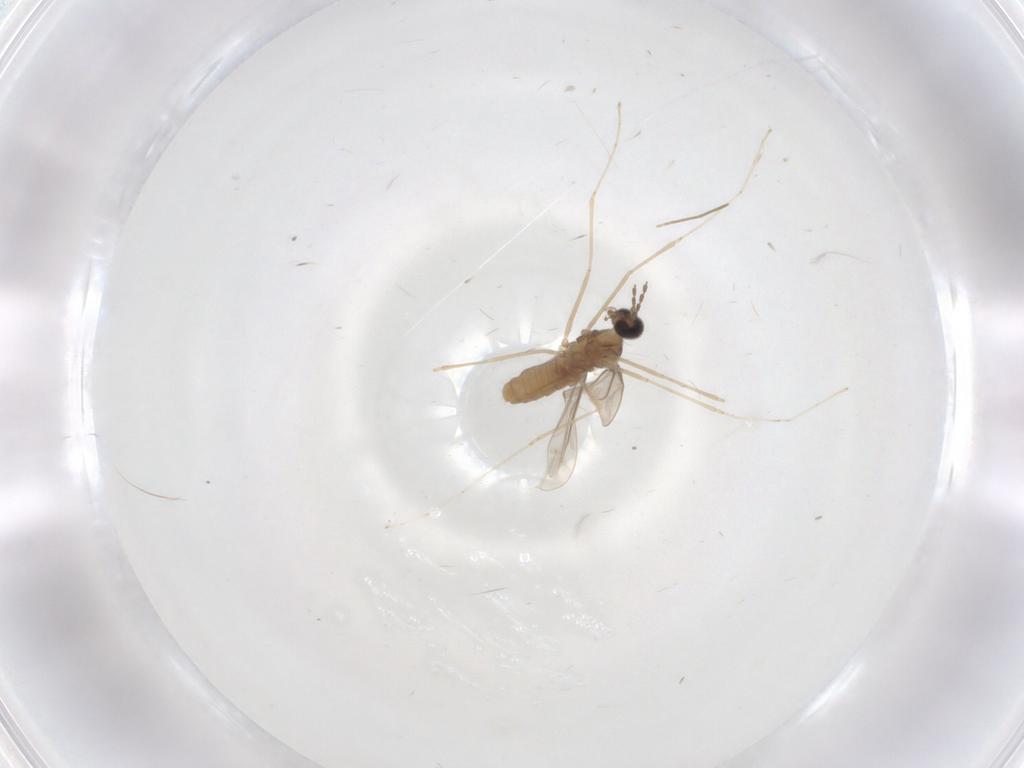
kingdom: Animalia
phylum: Arthropoda
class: Insecta
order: Diptera
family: Ceratopogonidae
